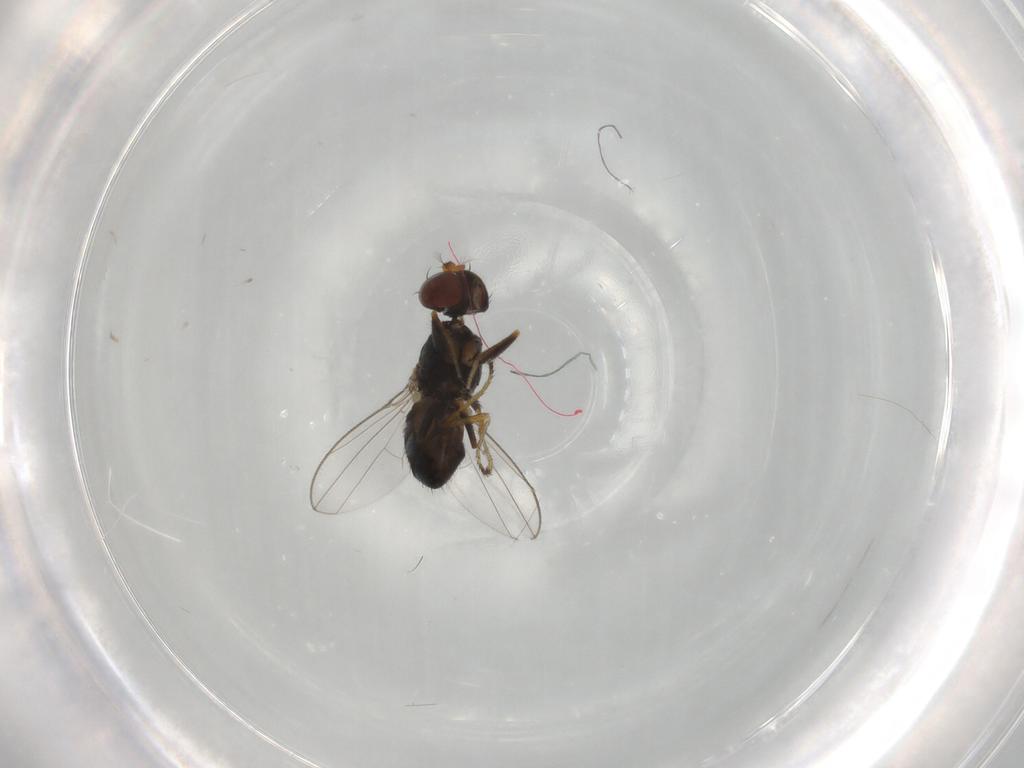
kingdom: Animalia
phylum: Arthropoda
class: Insecta
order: Diptera
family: Ephydridae
